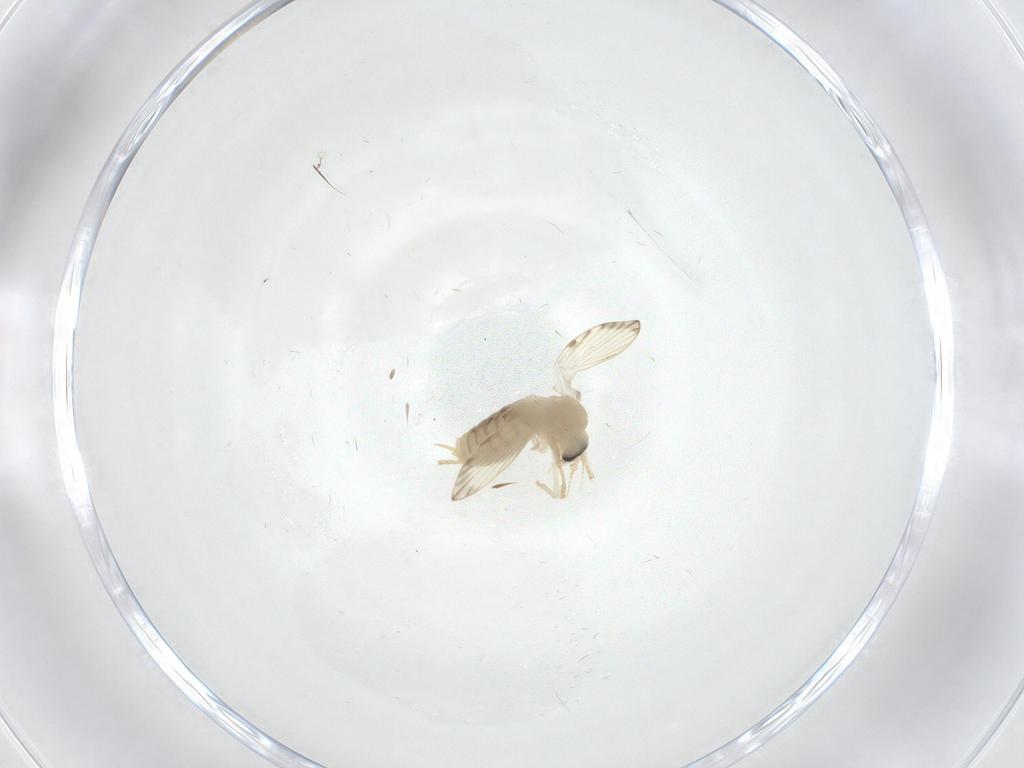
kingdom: Animalia
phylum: Arthropoda
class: Insecta
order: Diptera
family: Psychodidae
